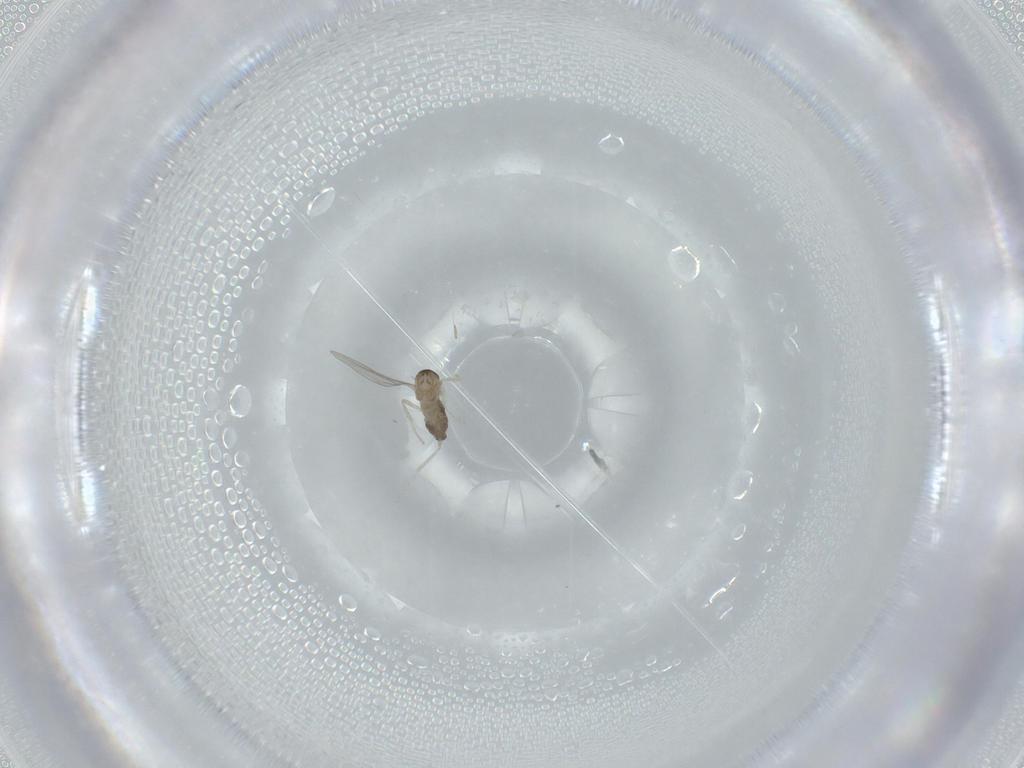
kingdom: Animalia
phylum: Arthropoda
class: Insecta
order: Diptera
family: Cecidomyiidae
